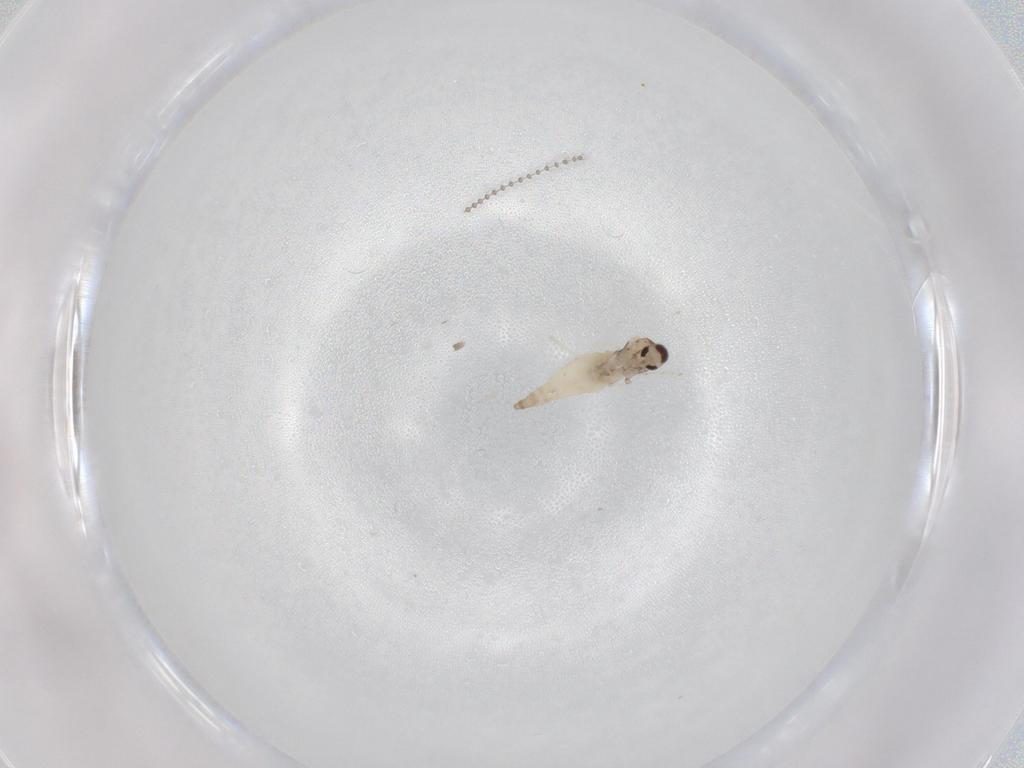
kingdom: Animalia
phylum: Arthropoda
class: Insecta
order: Diptera
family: Cecidomyiidae
